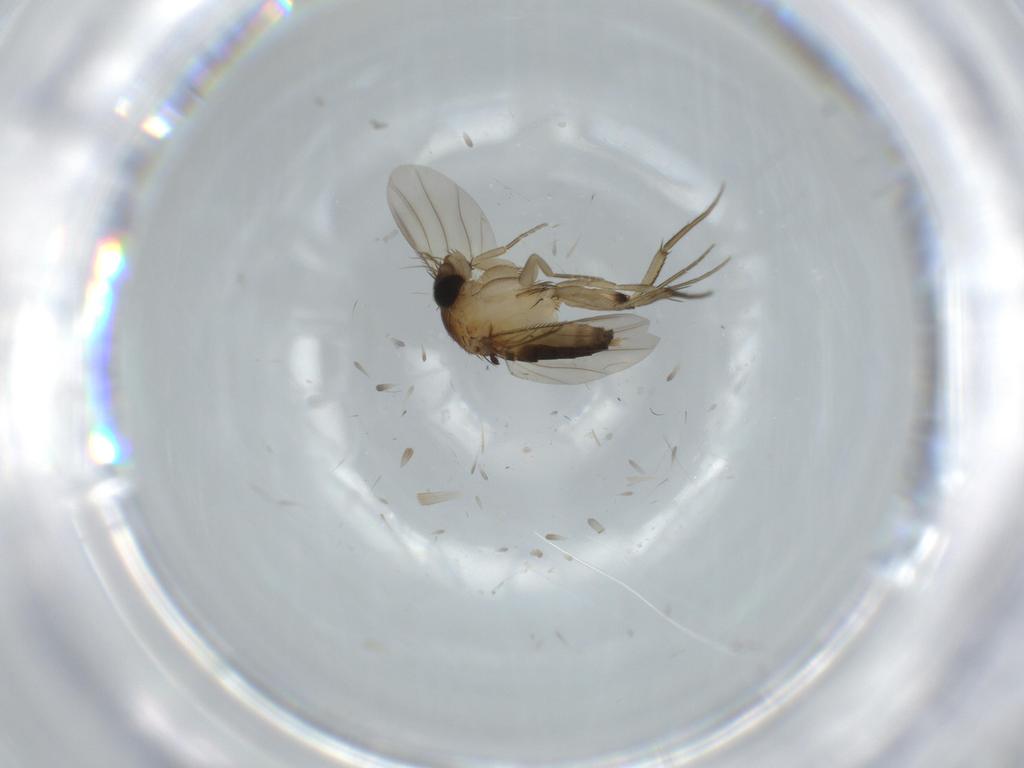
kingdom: Animalia
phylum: Arthropoda
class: Insecta
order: Diptera
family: Phoridae
